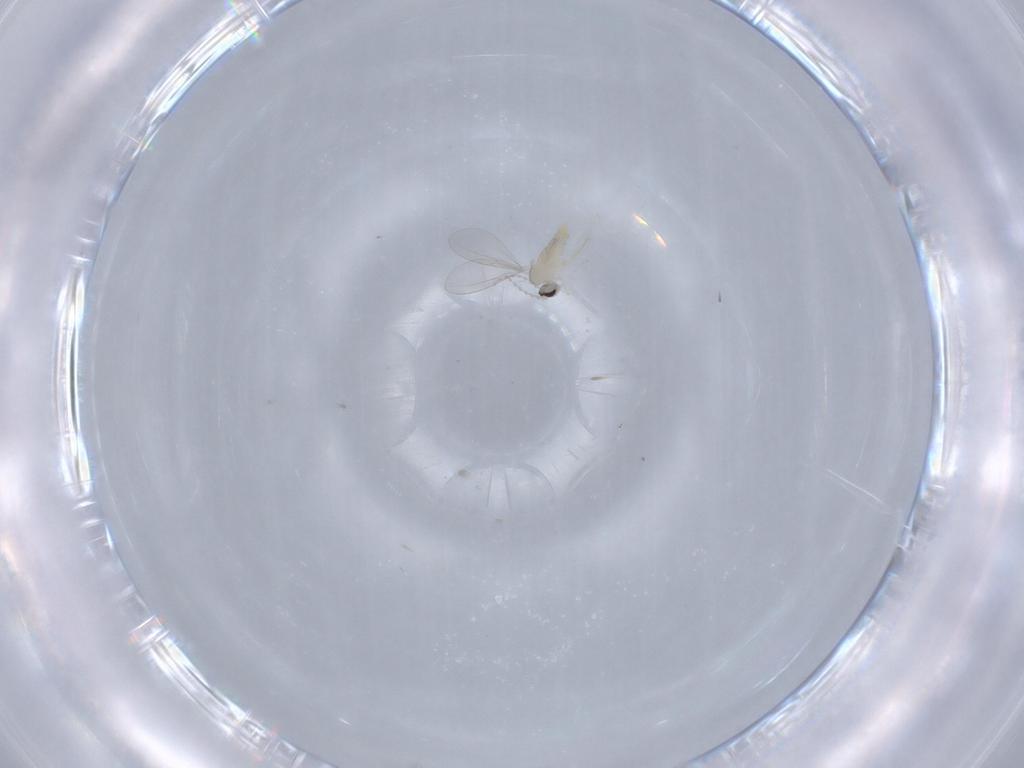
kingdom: Animalia
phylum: Arthropoda
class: Insecta
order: Diptera
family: Cecidomyiidae
